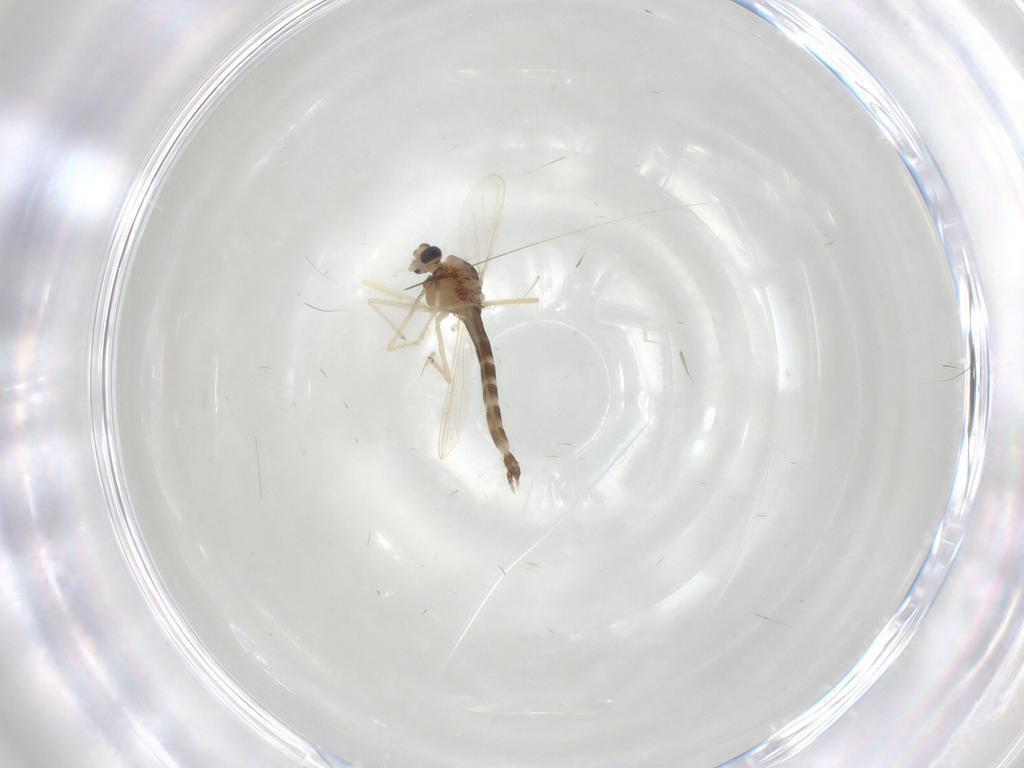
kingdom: Animalia
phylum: Arthropoda
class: Insecta
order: Diptera
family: Chironomidae
